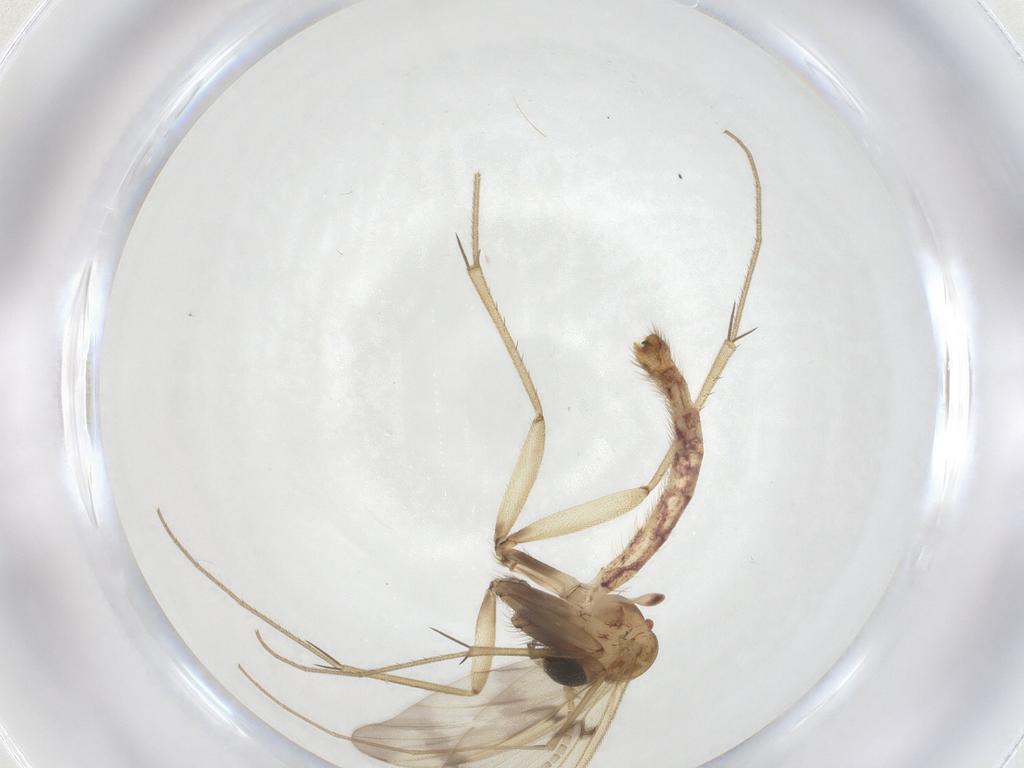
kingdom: Animalia
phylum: Arthropoda
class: Insecta
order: Diptera
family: Mycetophilidae
